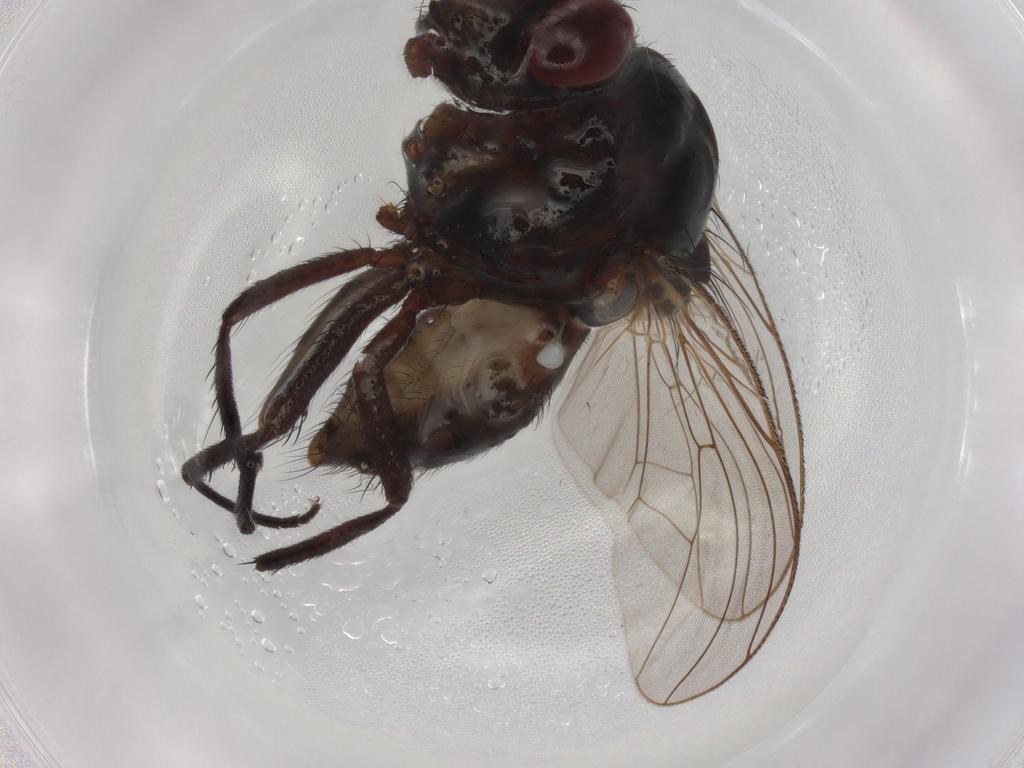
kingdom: Animalia
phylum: Arthropoda
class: Insecta
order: Diptera
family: Anthomyiidae
